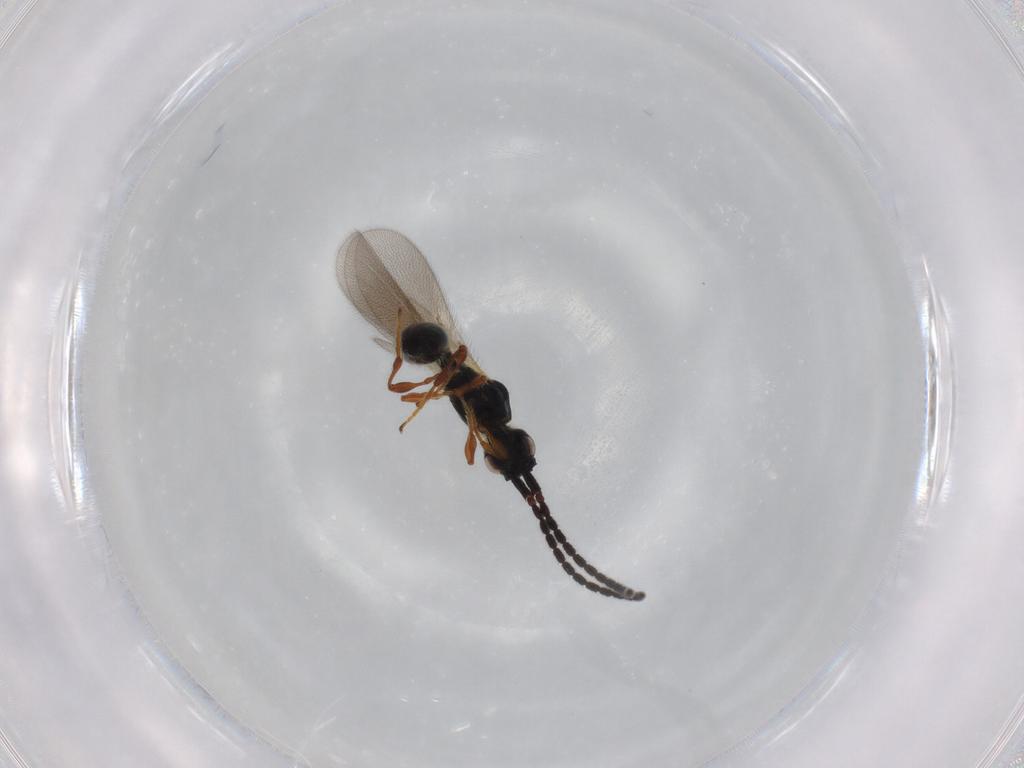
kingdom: Animalia
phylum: Arthropoda
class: Insecta
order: Hymenoptera
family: Diapriidae
